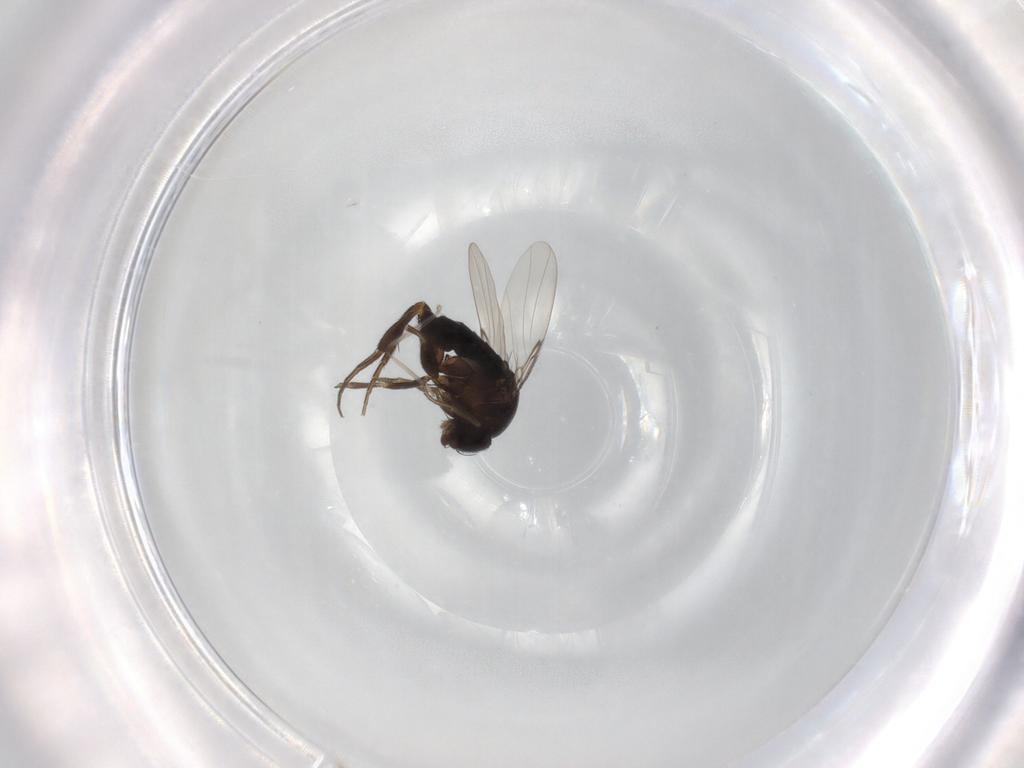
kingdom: Animalia
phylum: Arthropoda
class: Insecta
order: Diptera
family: Phoridae
